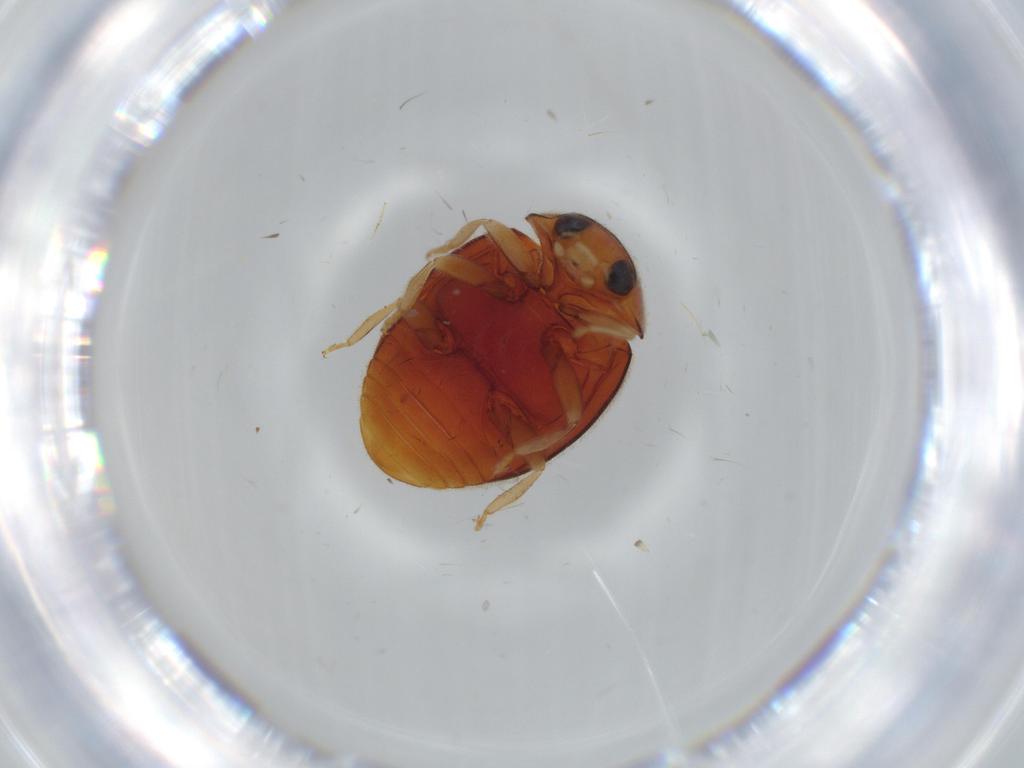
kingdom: Animalia
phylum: Arthropoda
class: Insecta
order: Coleoptera
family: Coccinellidae
